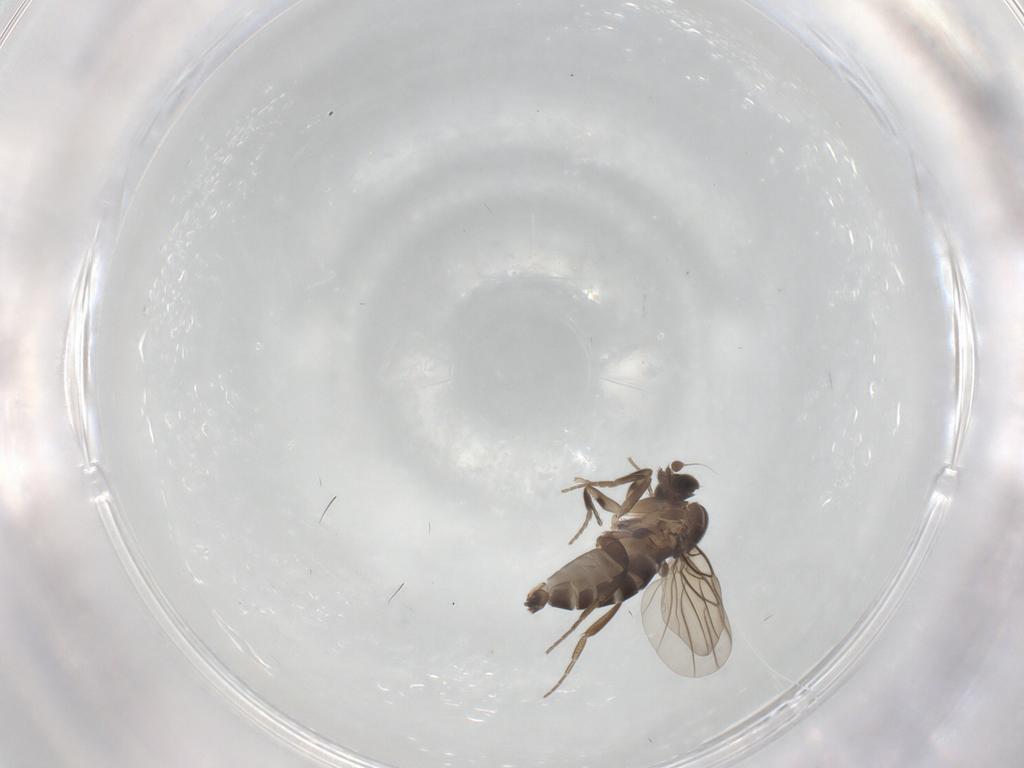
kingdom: Animalia
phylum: Arthropoda
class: Insecta
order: Diptera
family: Phoridae
